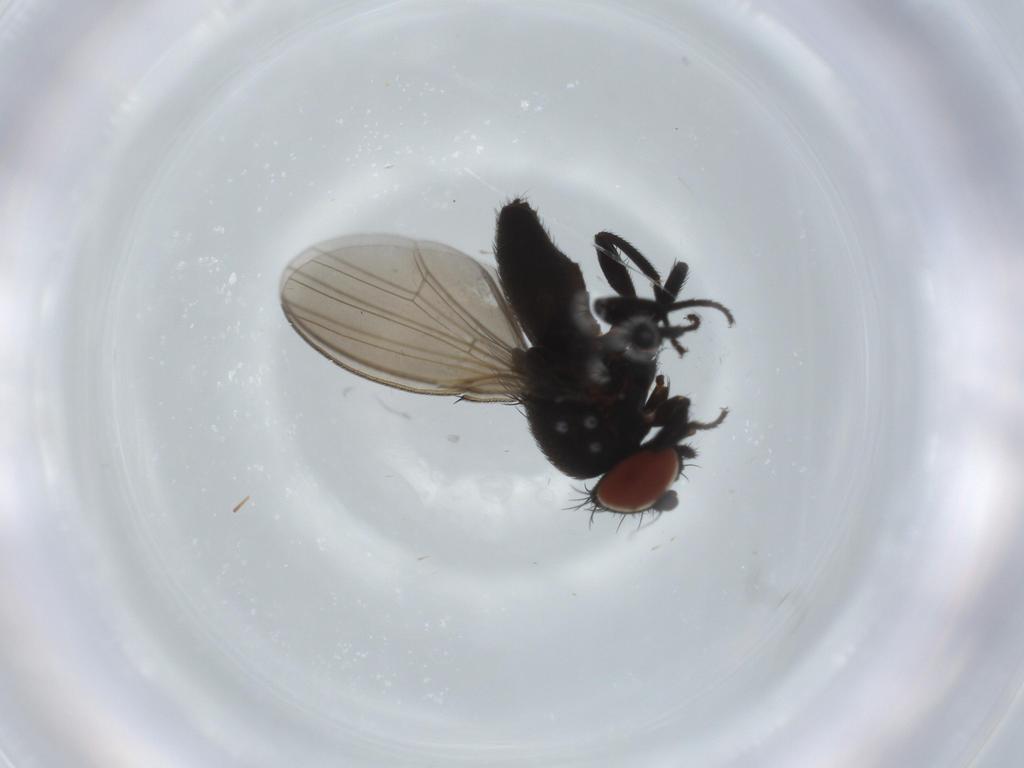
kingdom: Animalia
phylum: Arthropoda
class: Insecta
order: Diptera
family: Milichiidae
